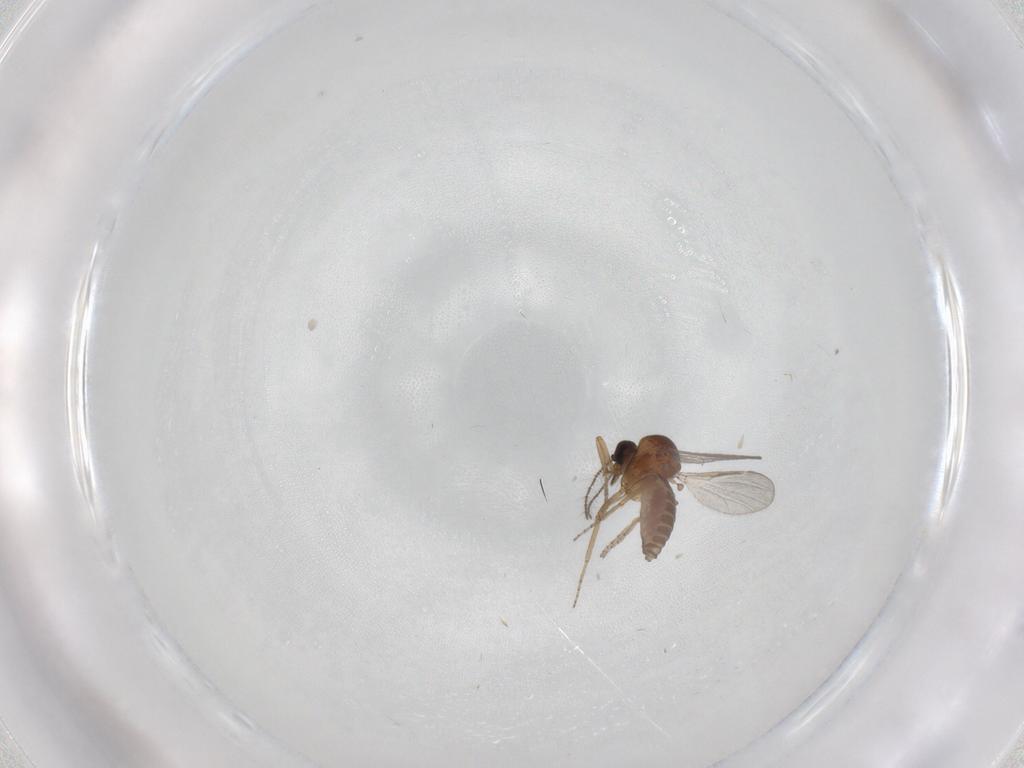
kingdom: Animalia
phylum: Arthropoda
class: Insecta
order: Diptera
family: Ceratopogonidae
